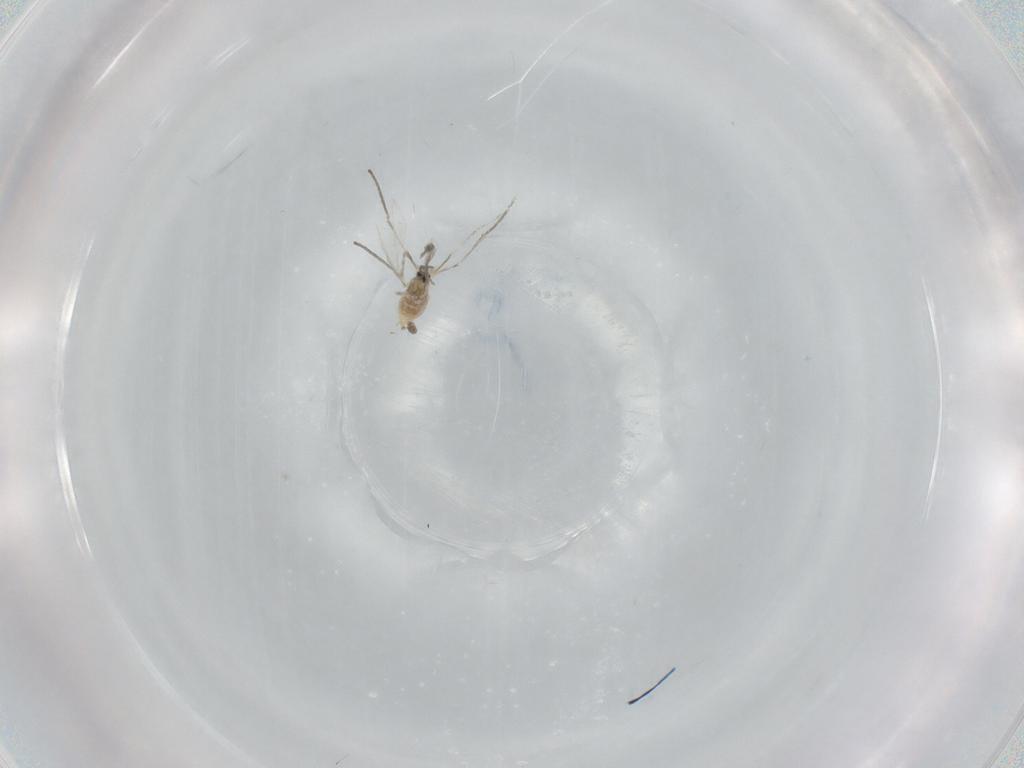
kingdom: Animalia
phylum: Arthropoda
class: Insecta
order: Diptera
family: Cecidomyiidae
